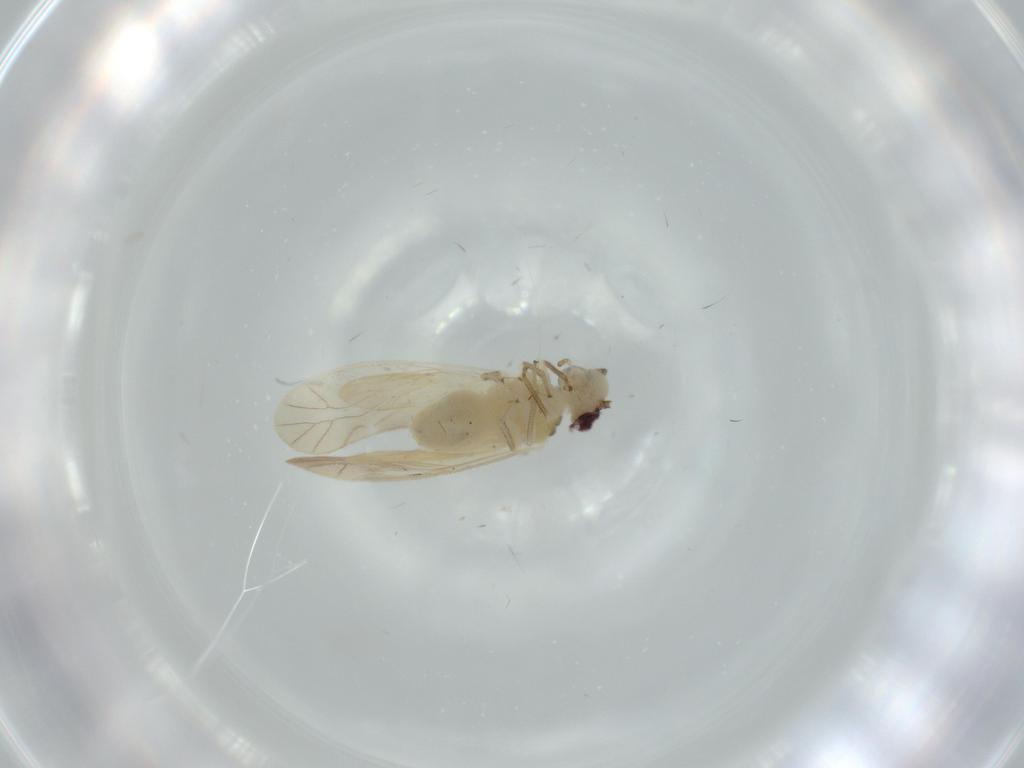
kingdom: Animalia
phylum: Arthropoda
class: Insecta
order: Psocodea
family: Caeciliusidae
